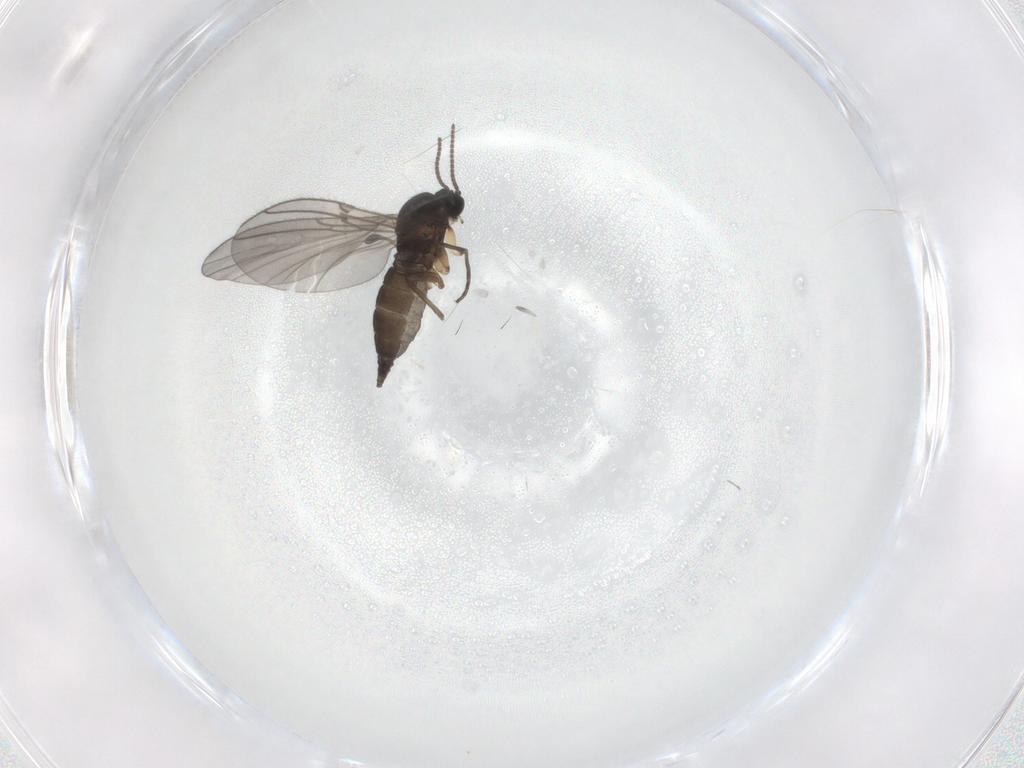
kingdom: Animalia
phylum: Arthropoda
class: Insecta
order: Diptera
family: Sciaridae
